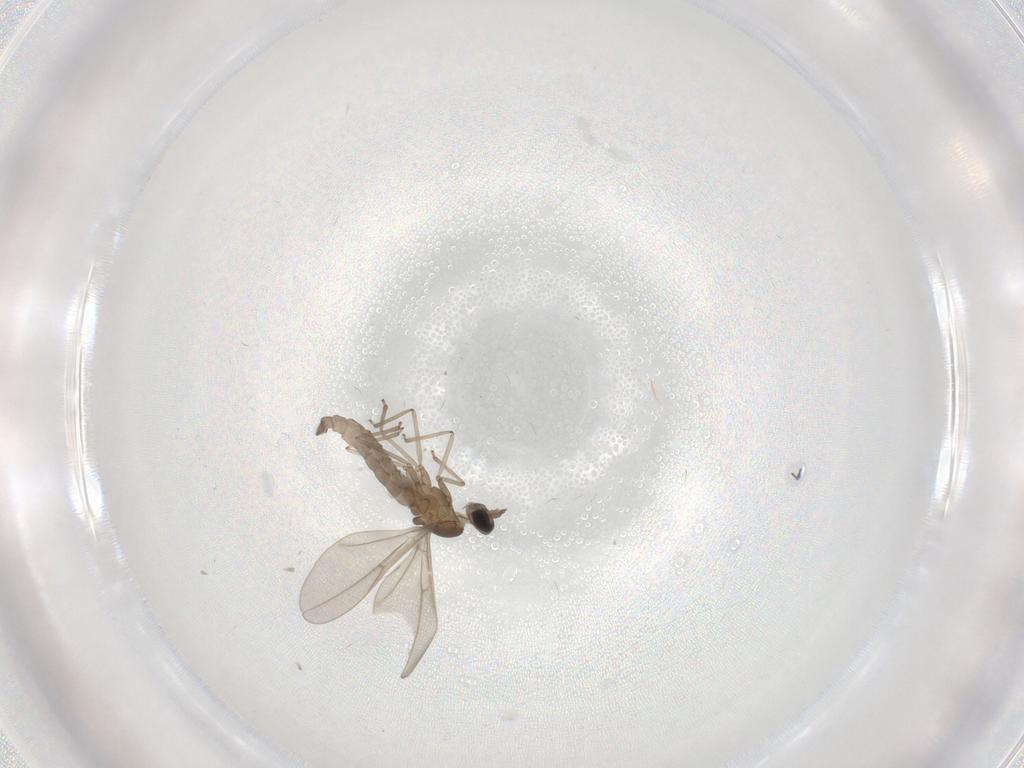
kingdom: Animalia
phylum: Arthropoda
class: Insecta
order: Diptera
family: Cecidomyiidae
